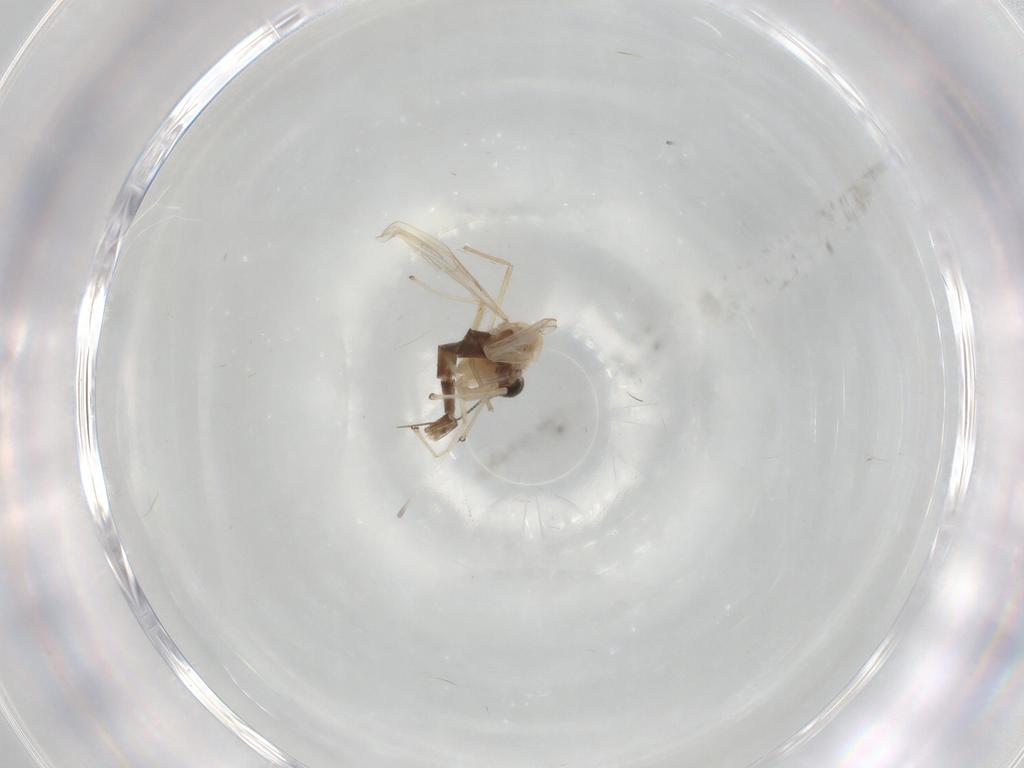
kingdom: Animalia
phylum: Arthropoda
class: Insecta
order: Diptera
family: Chironomidae
